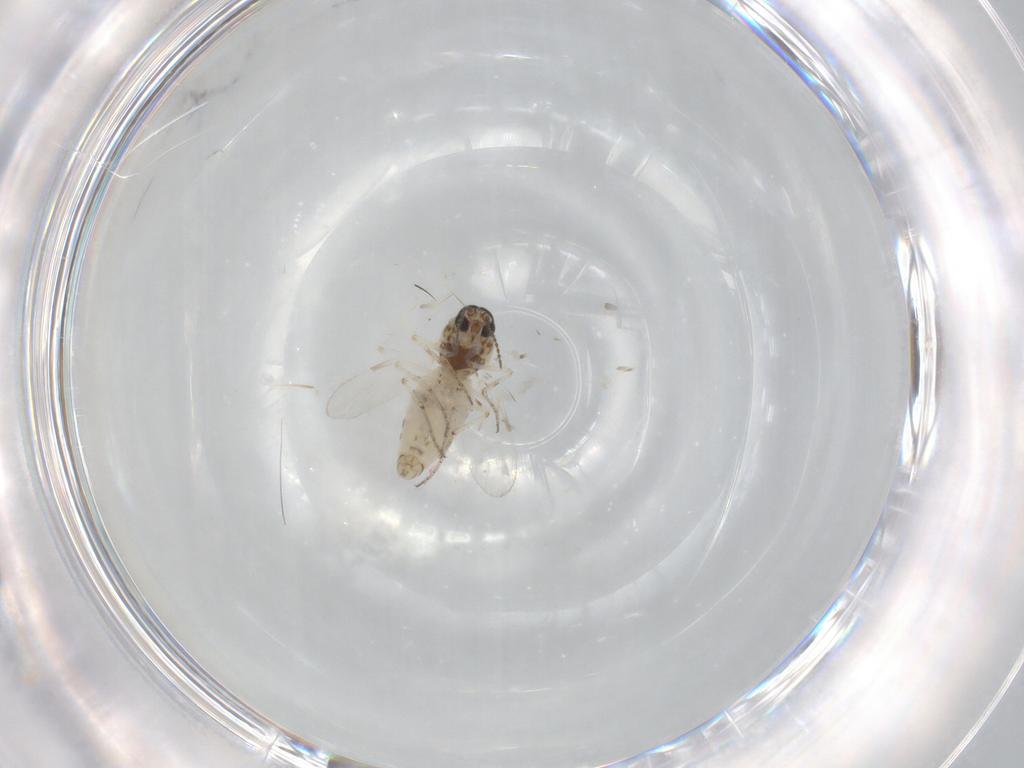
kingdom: Animalia
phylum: Arthropoda
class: Insecta
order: Diptera
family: Ceratopogonidae
